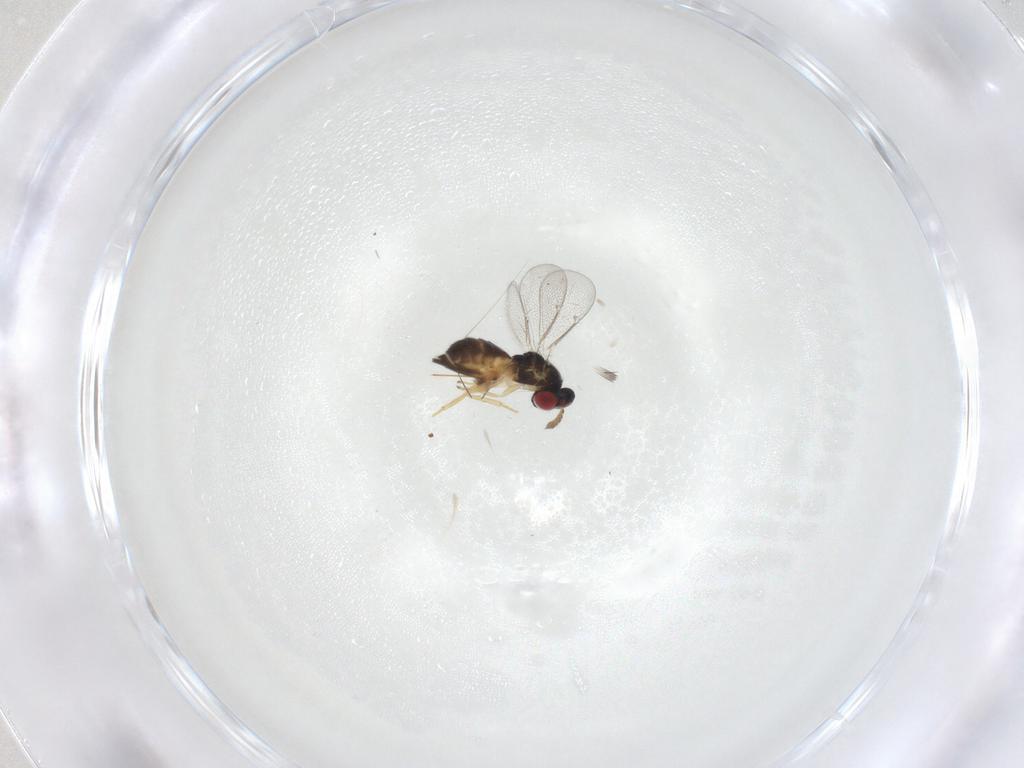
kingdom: Animalia
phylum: Arthropoda
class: Insecta
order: Hymenoptera
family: Eulophidae
